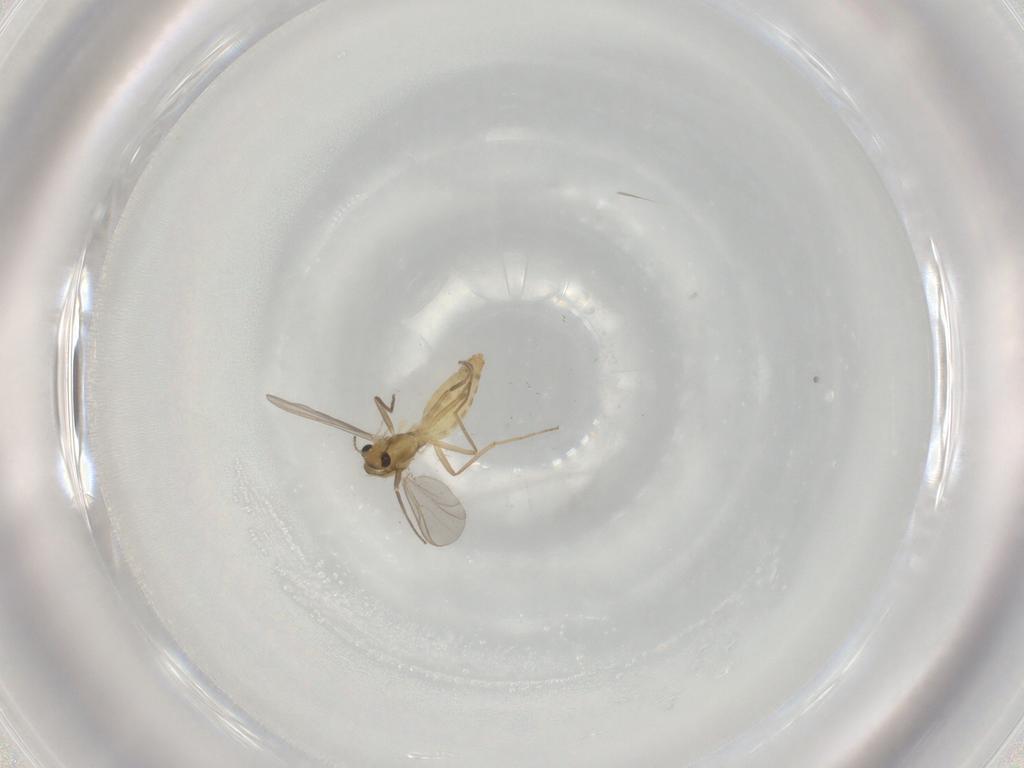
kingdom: Animalia
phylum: Arthropoda
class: Insecta
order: Diptera
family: Chironomidae
